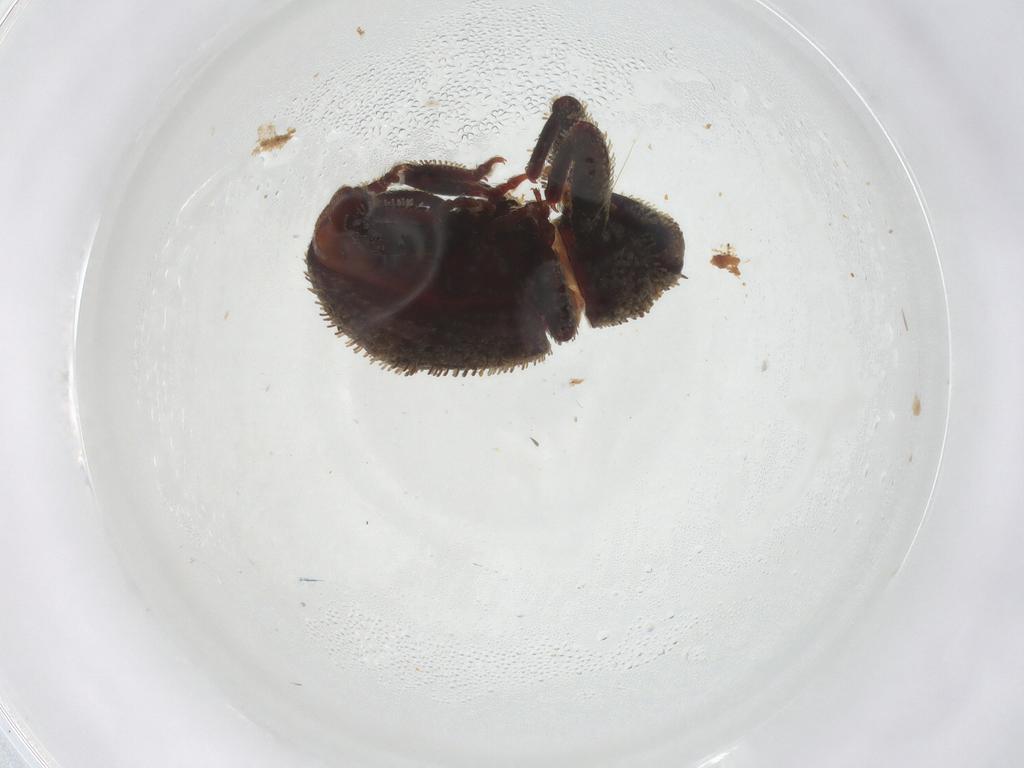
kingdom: Animalia
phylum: Arthropoda
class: Insecta
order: Coleoptera
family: Curculionidae
